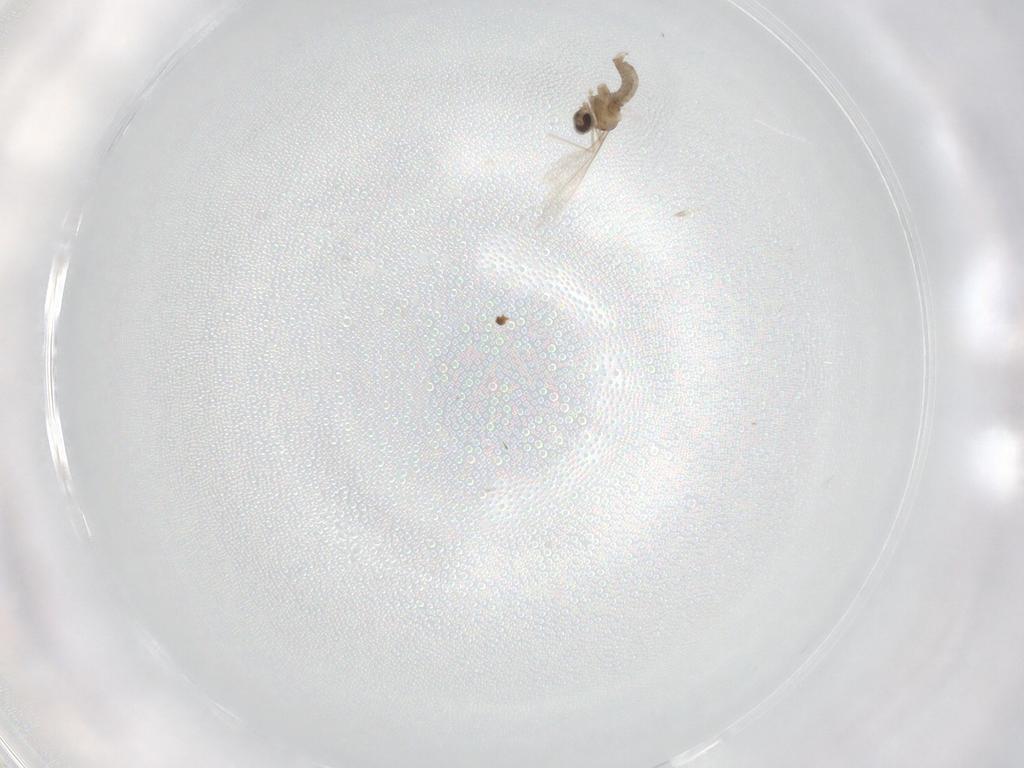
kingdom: Animalia
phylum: Arthropoda
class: Insecta
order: Diptera
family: Cecidomyiidae
